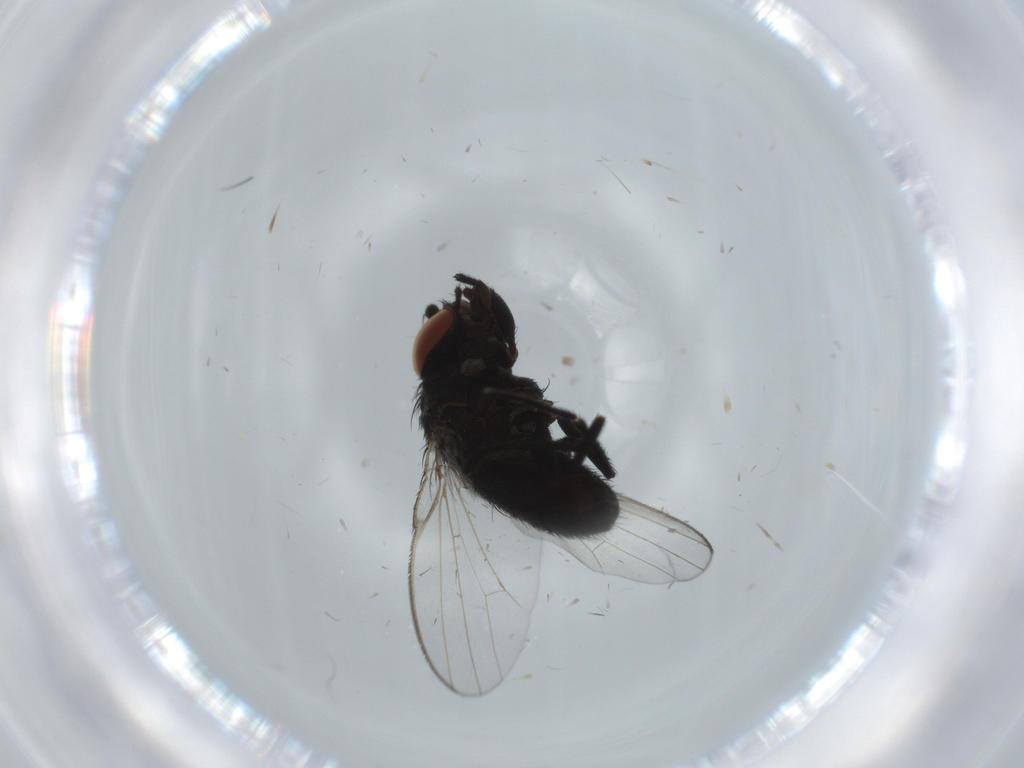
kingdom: Animalia
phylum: Arthropoda
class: Insecta
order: Diptera
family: Milichiidae
